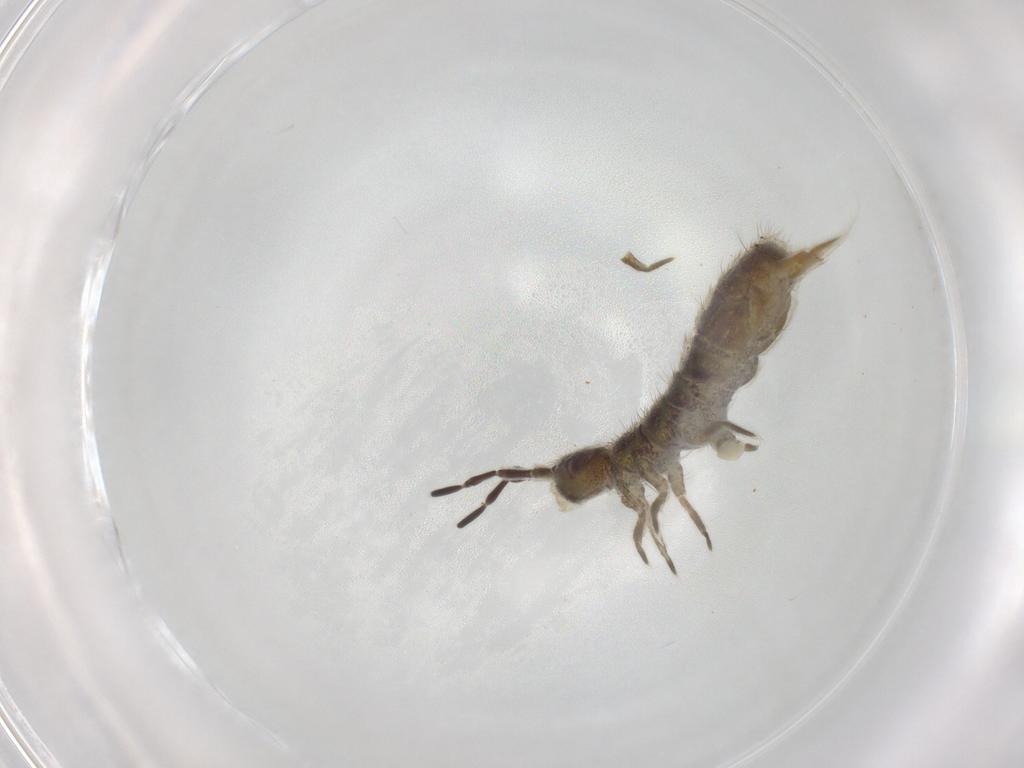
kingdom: Animalia
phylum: Arthropoda
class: Collembola
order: Entomobryomorpha
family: Isotomidae
